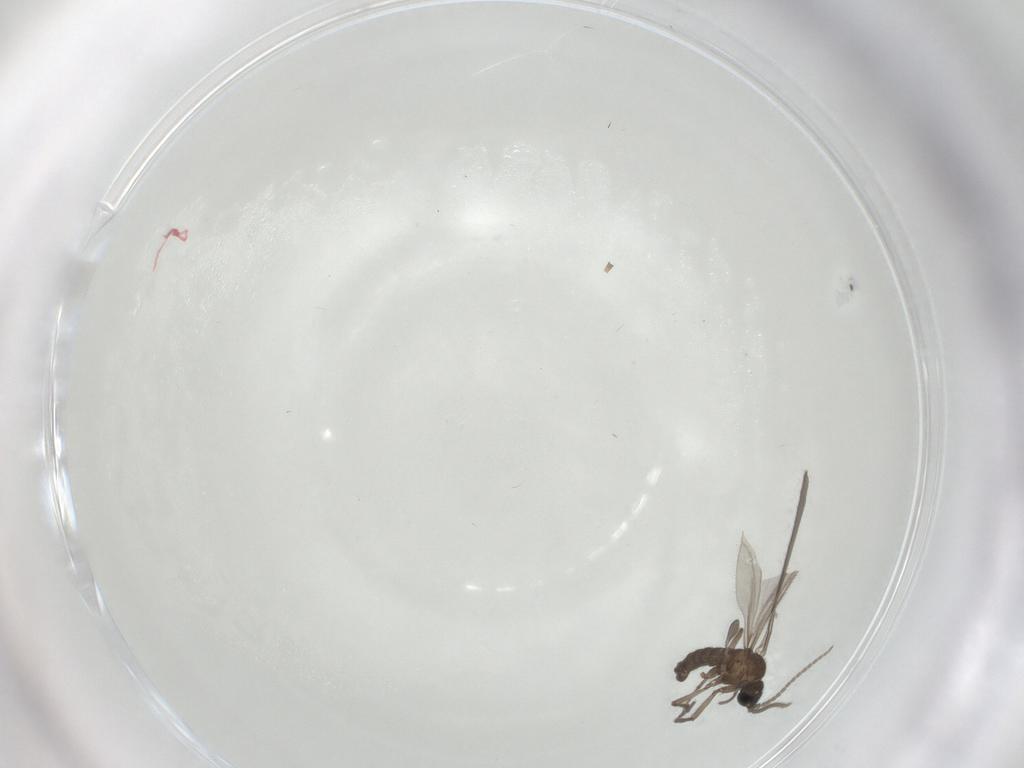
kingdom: Animalia
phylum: Arthropoda
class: Insecta
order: Diptera
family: Sciaridae
